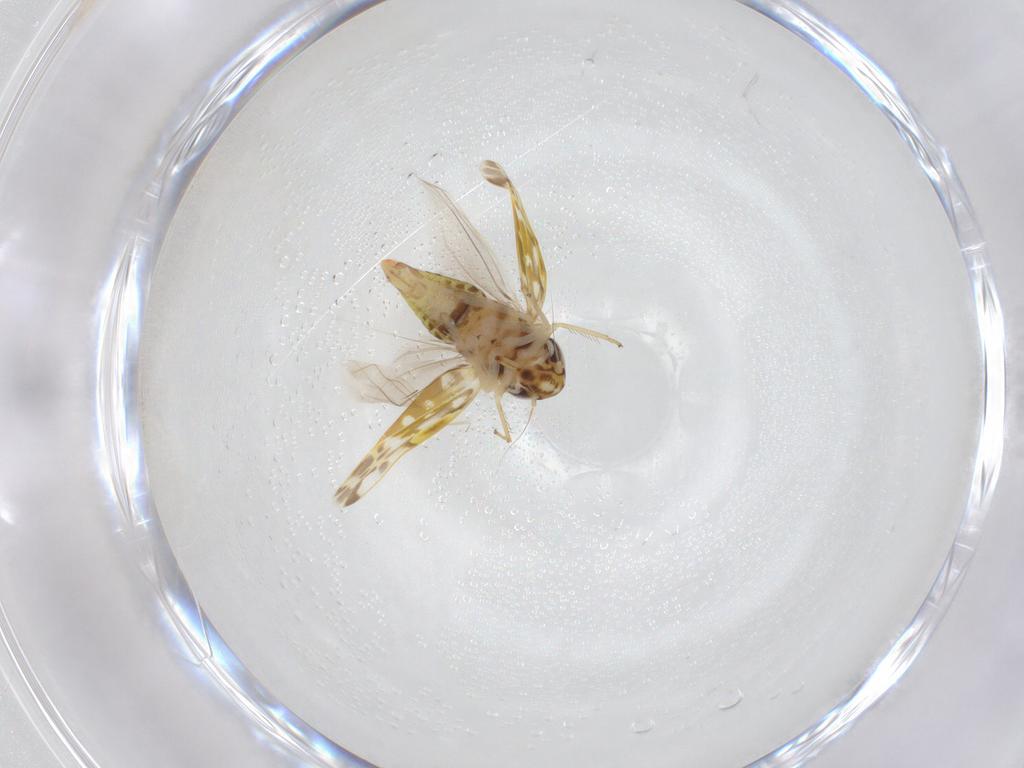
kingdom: Animalia
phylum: Arthropoda
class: Insecta
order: Hemiptera
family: Cicadellidae
